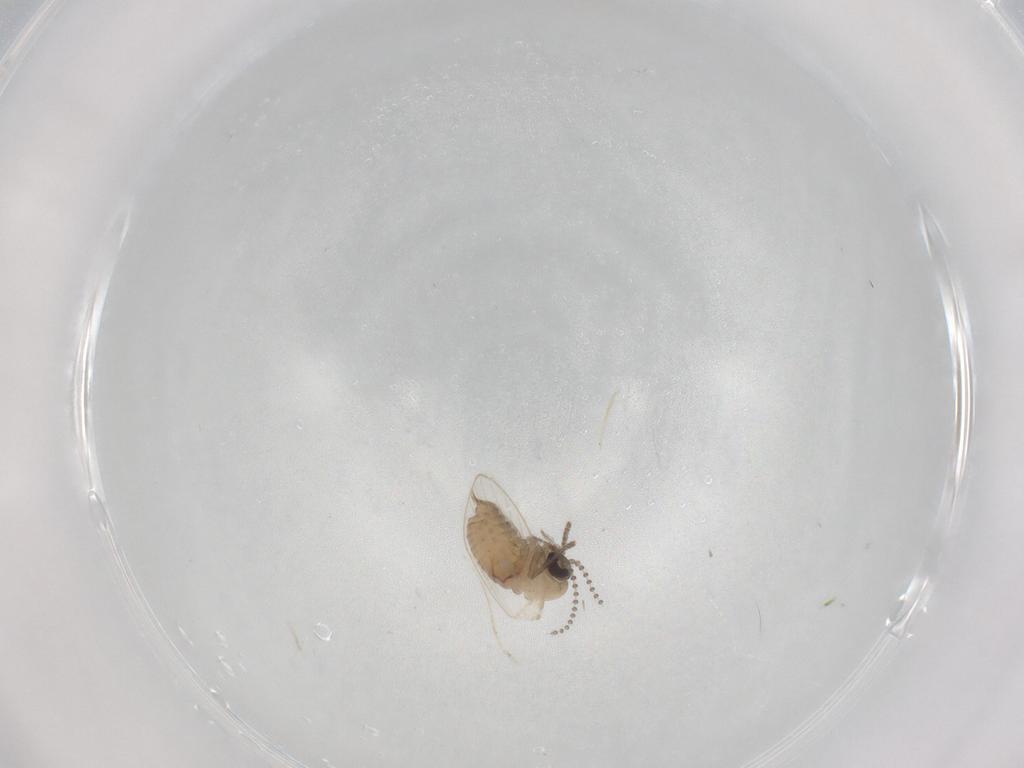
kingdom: Animalia
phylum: Arthropoda
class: Insecta
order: Diptera
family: Psychodidae
